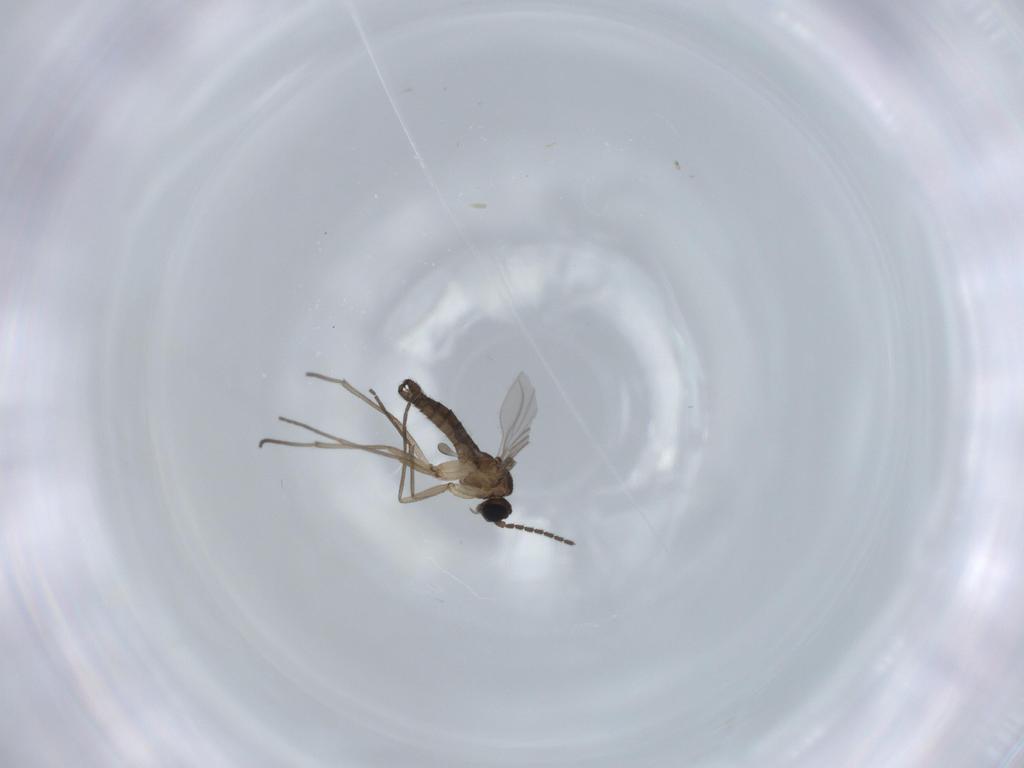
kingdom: Animalia
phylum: Arthropoda
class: Insecta
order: Diptera
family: Sciaridae
